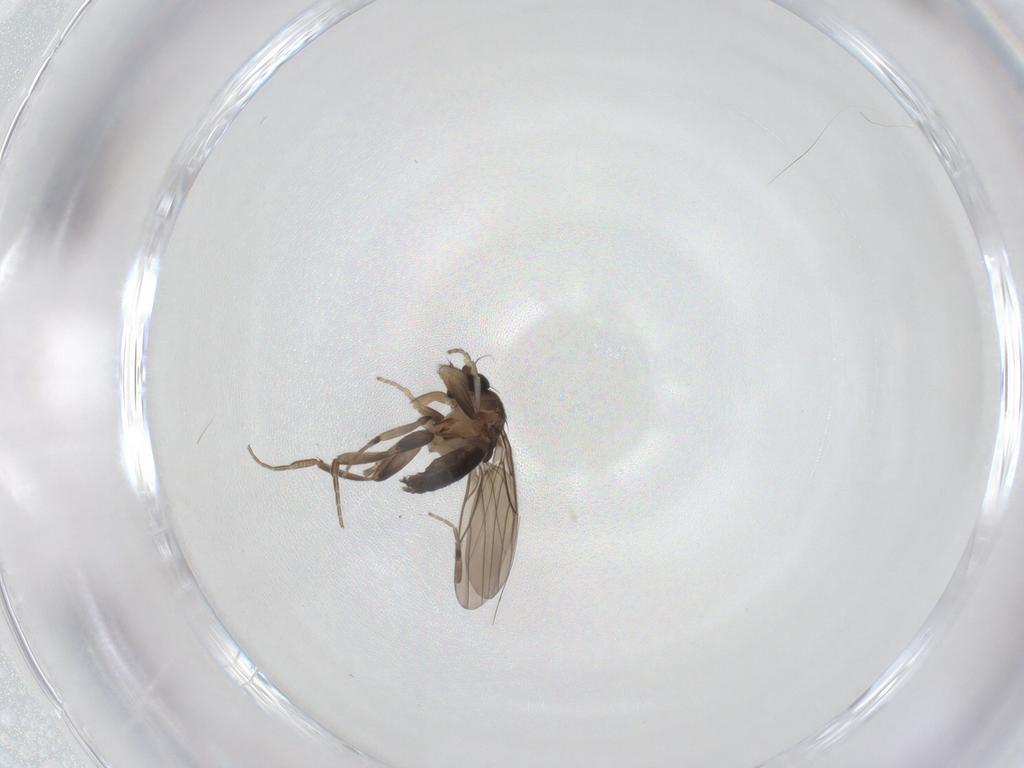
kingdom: Animalia
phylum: Arthropoda
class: Insecta
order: Diptera
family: Phoridae
